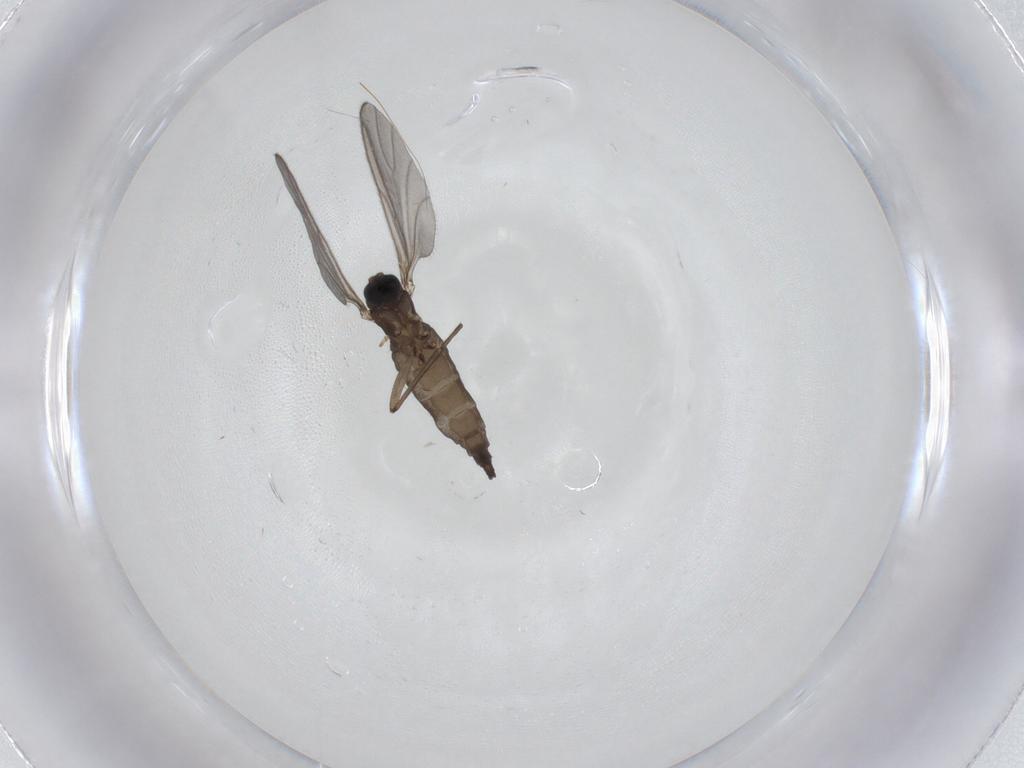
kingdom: Animalia
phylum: Arthropoda
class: Insecta
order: Diptera
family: Sciaridae
